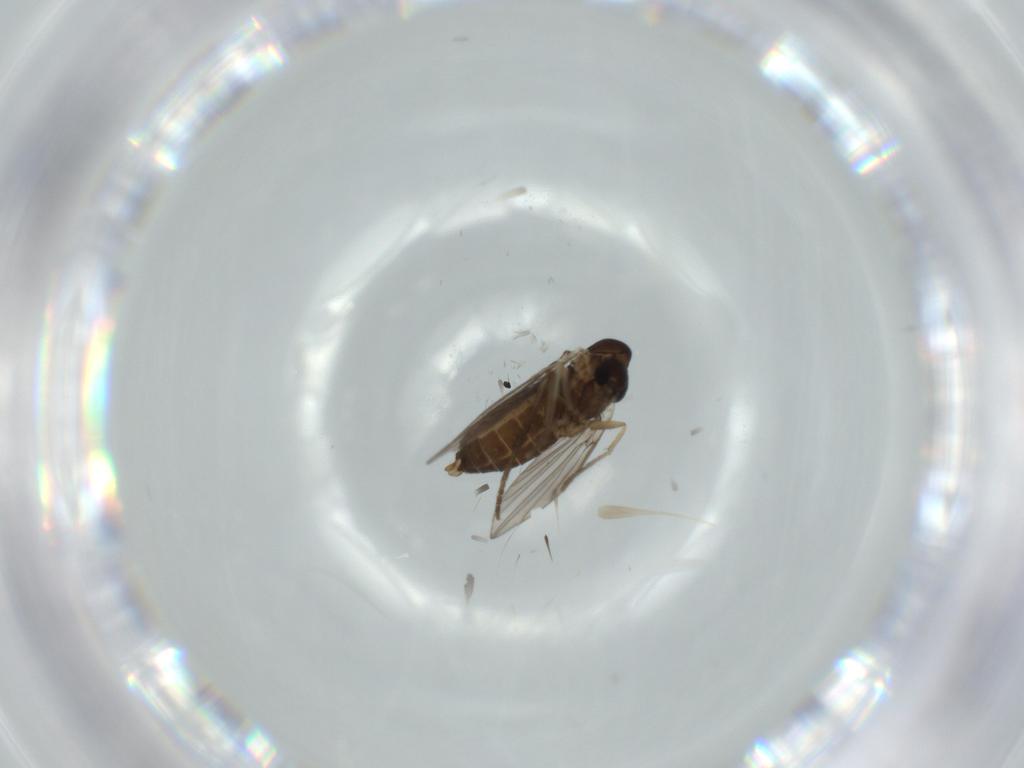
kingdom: Animalia
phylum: Arthropoda
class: Insecta
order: Diptera
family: Psychodidae
